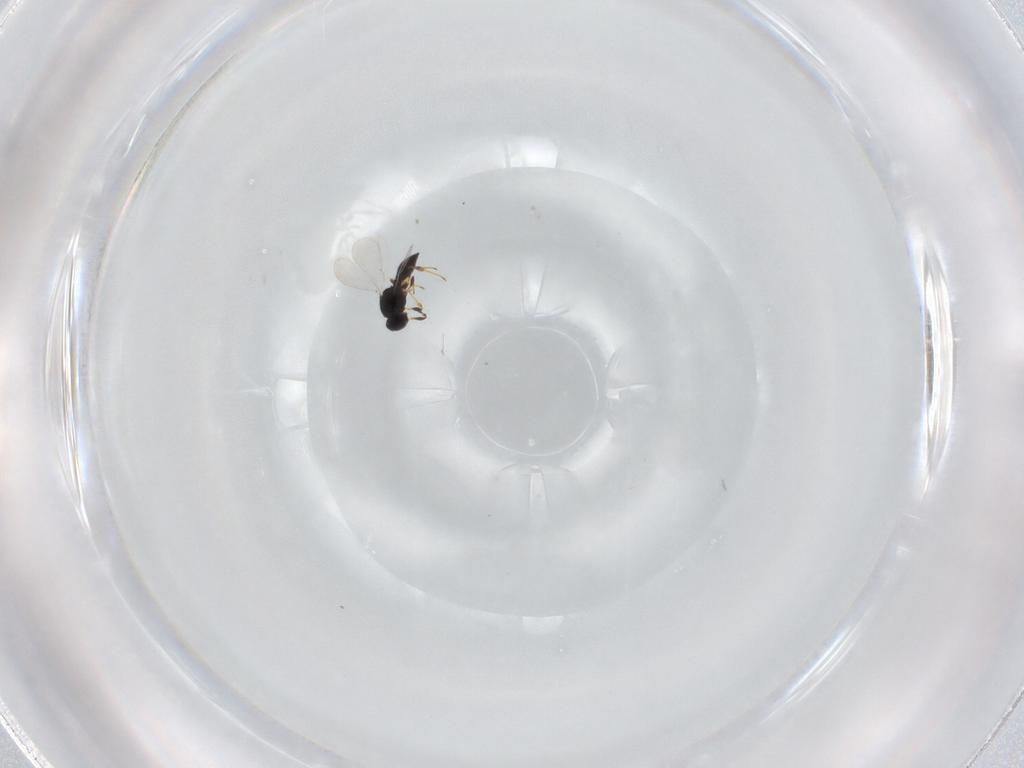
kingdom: Animalia
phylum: Arthropoda
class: Insecta
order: Hymenoptera
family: Platygastridae
